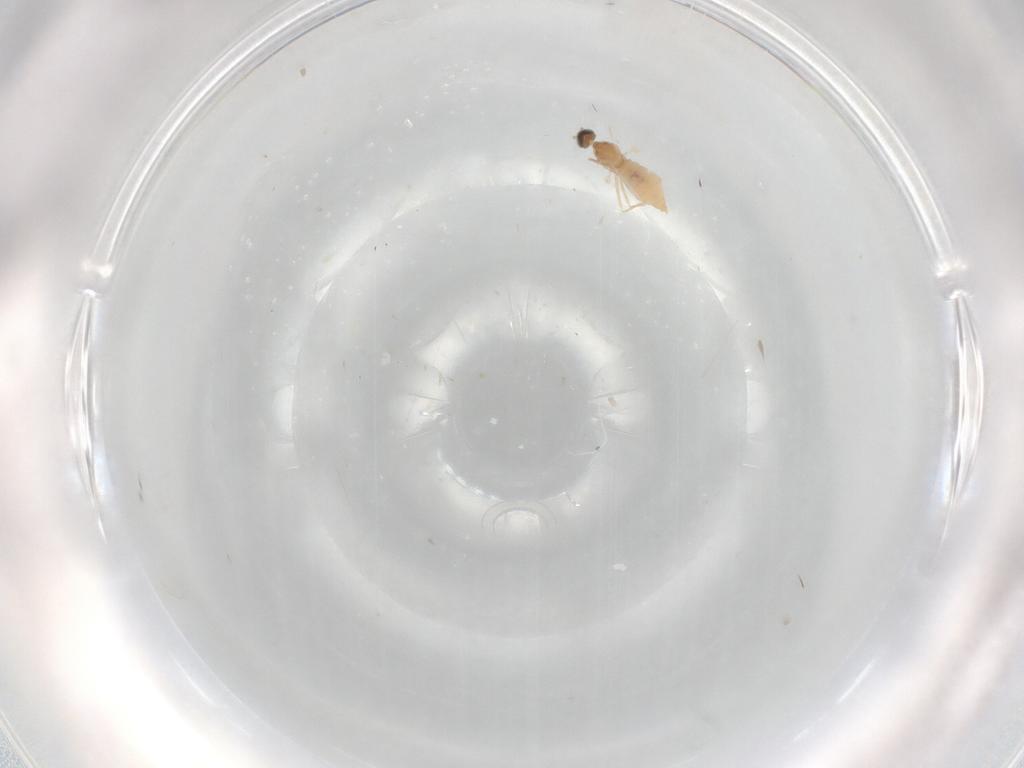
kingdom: Animalia
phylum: Arthropoda
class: Insecta
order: Diptera
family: Cecidomyiidae
